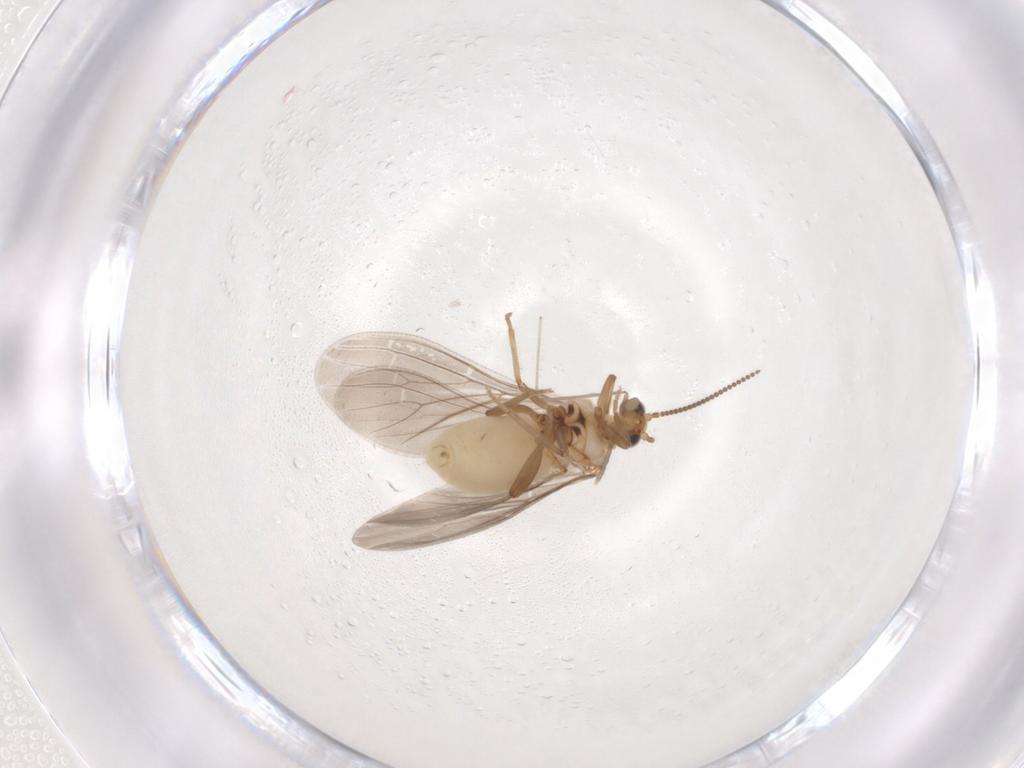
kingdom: Animalia
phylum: Arthropoda
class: Insecta
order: Neuroptera
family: Coniopterygidae
